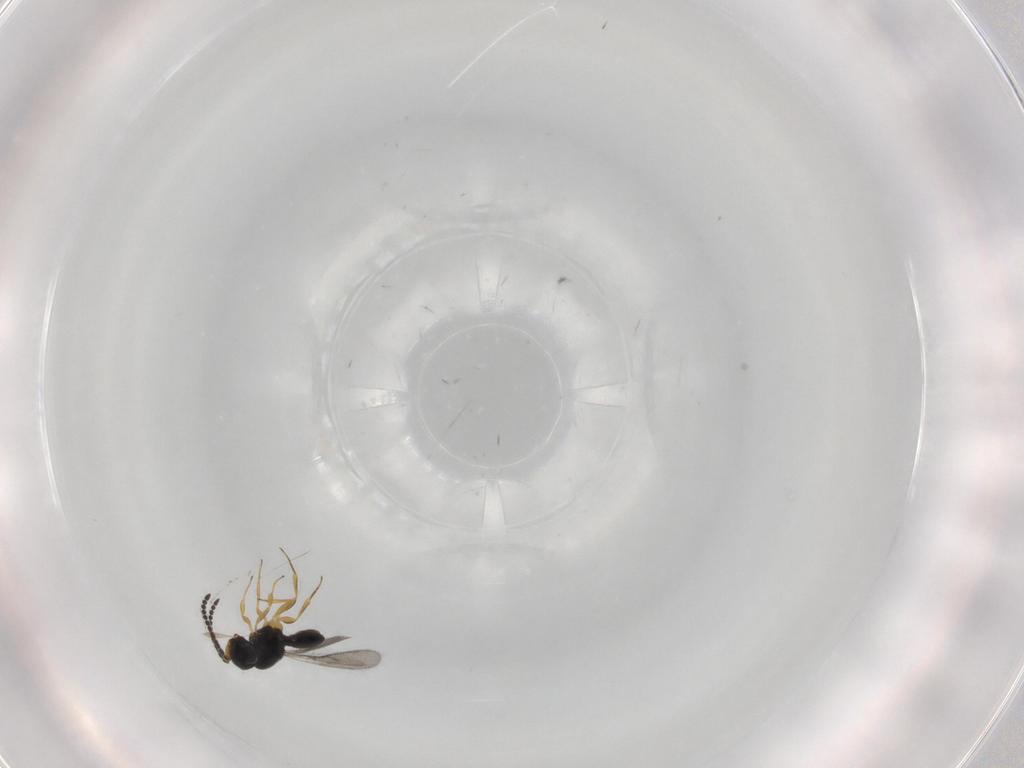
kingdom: Animalia
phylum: Arthropoda
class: Insecta
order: Hymenoptera
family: Scelionidae
